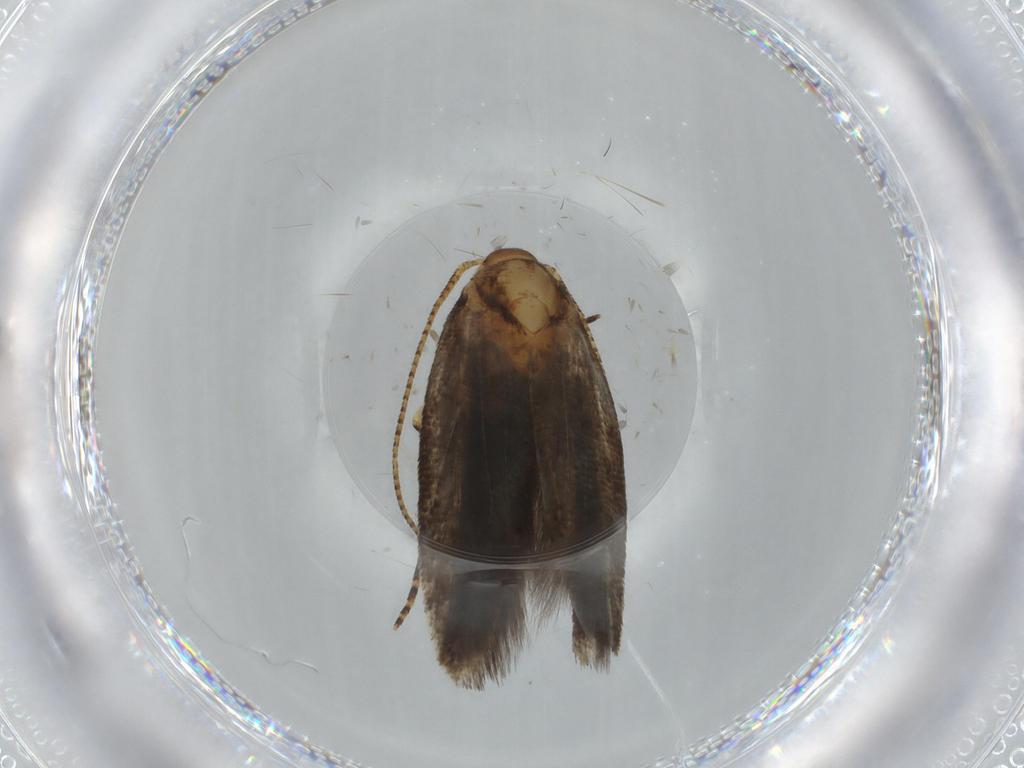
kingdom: Animalia
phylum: Arthropoda
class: Insecta
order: Lepidoptera
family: Gelechiidae
